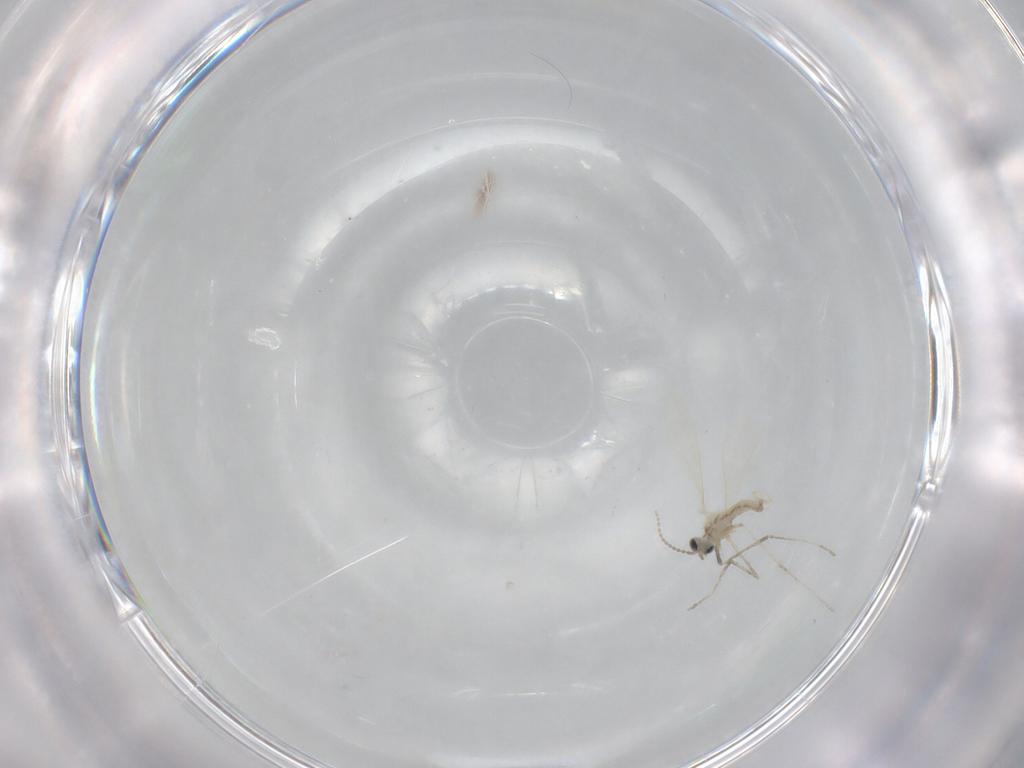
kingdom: Animalia
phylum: Arthropoda
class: Insecta
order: Diptera
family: Cecidomyiidae
